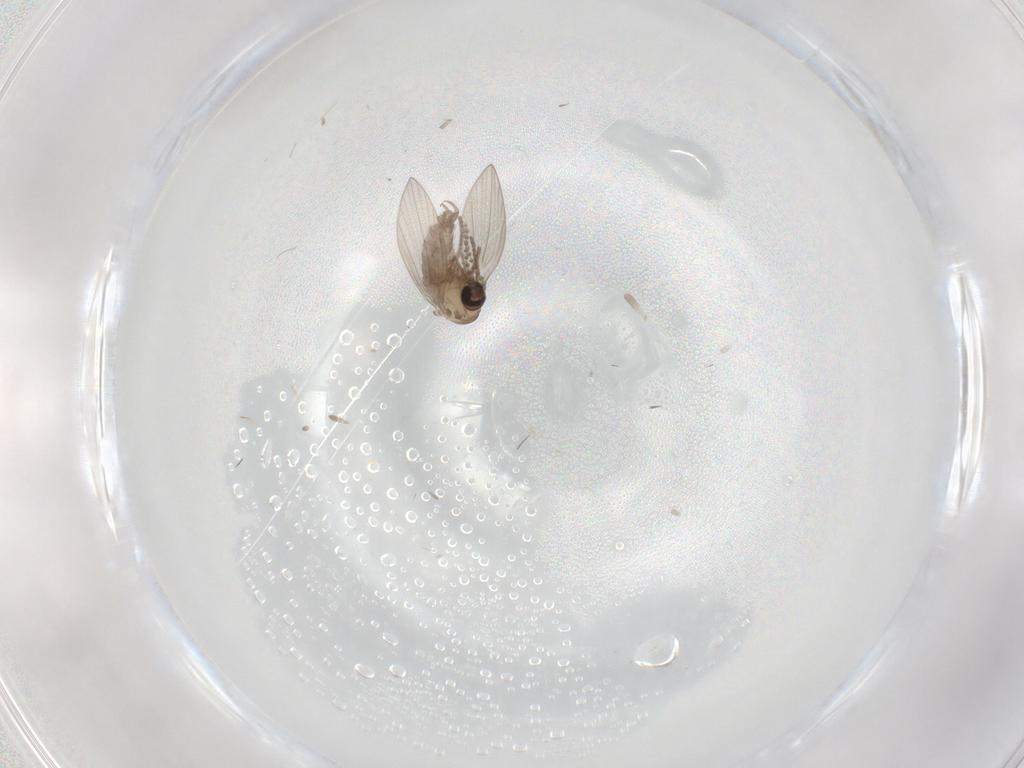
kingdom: Animalia
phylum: Arthropoda
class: Insecta
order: Diptera
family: Psychodidae
